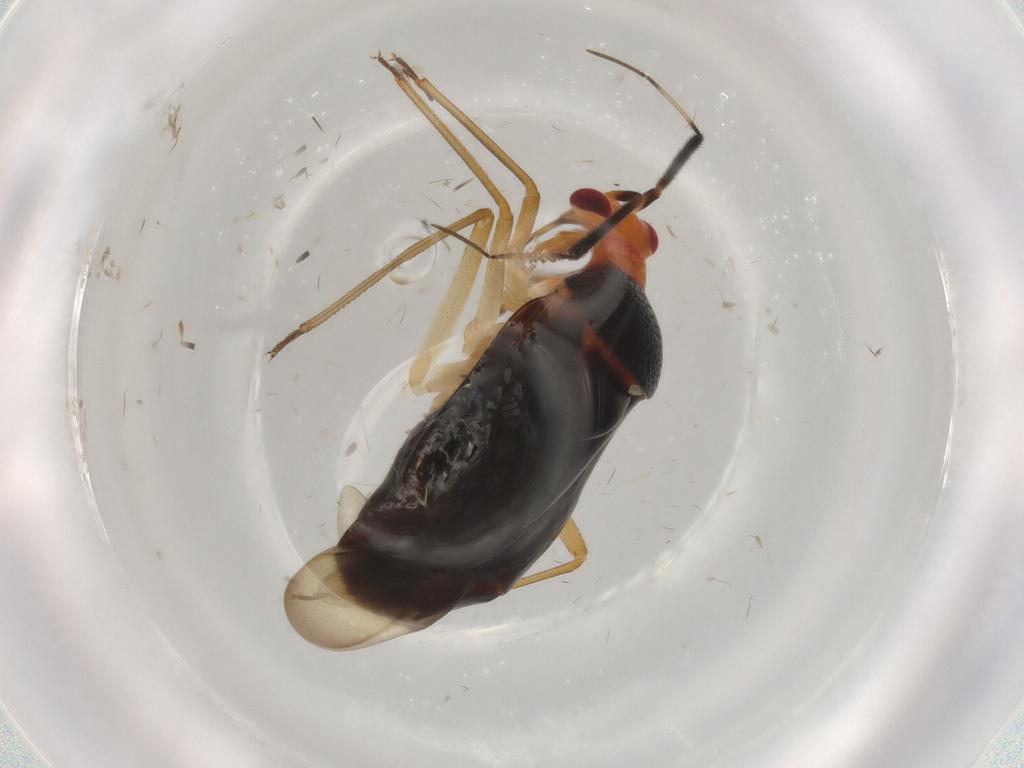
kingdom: Animalia
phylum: Arthropoda
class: Insecta
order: Hemiptera
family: Miridae
